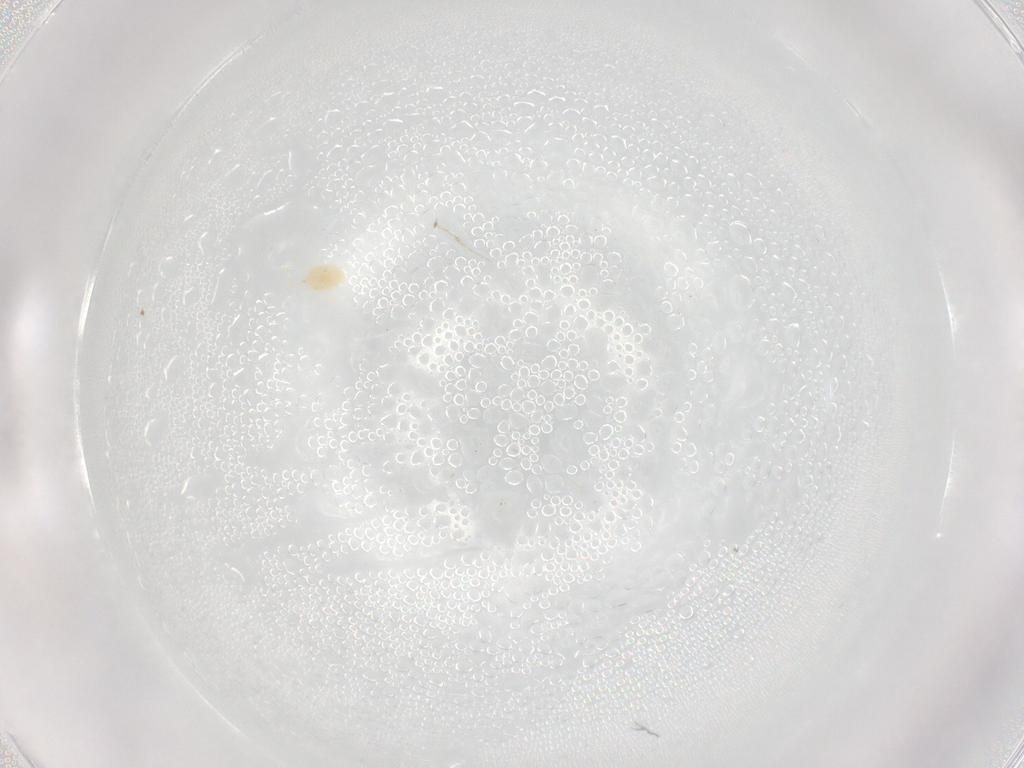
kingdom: Animalia
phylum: Arthropoda
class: Arachnida
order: Trombidiformes
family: Tetranychidae
